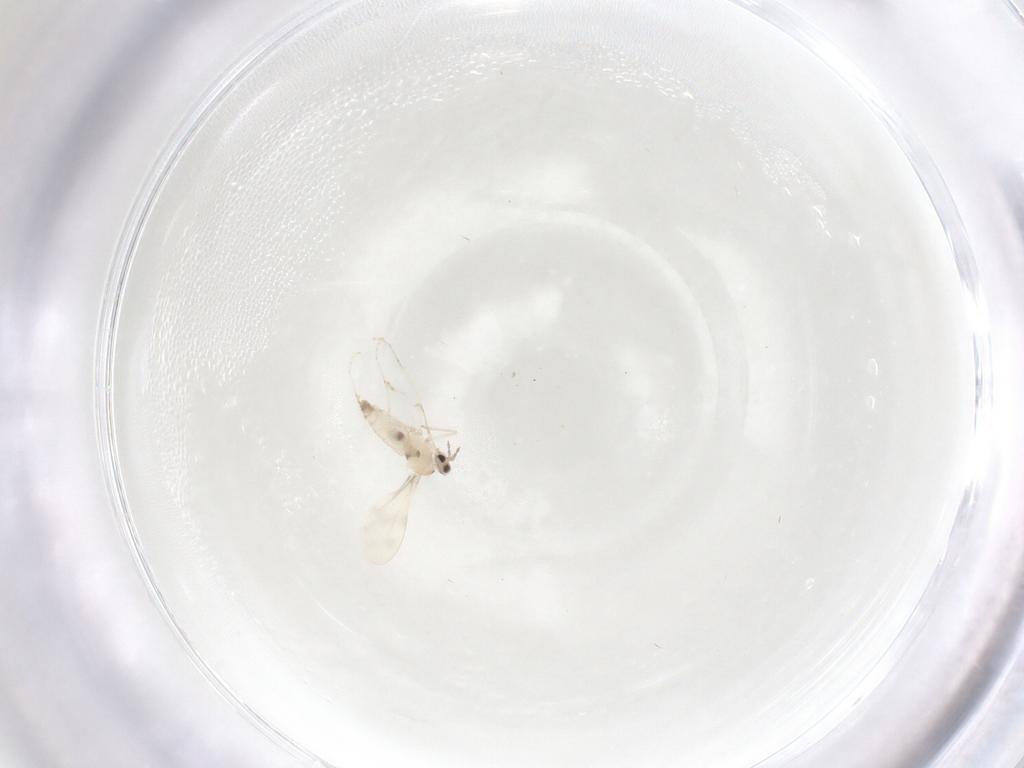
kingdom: Animalia
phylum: Arthropoda
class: Insecta
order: Diptera
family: Cecidomyiidae
